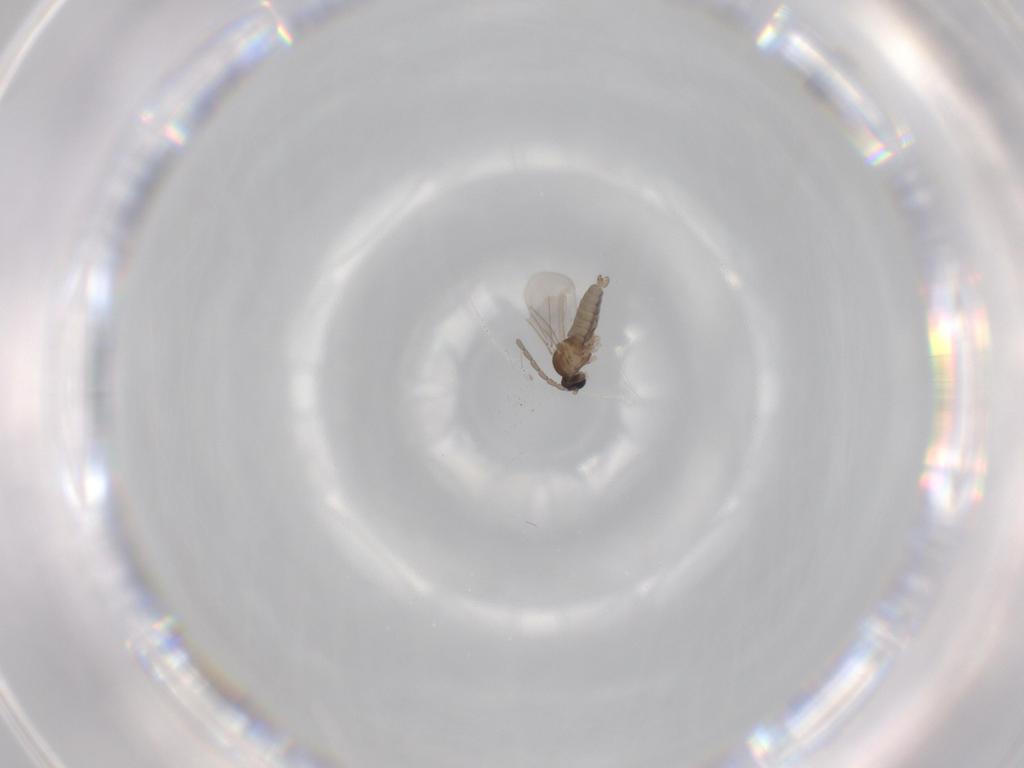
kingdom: Animalia
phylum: Arthropoda
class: Insecta
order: Diptera
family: Cecidomyiidae
